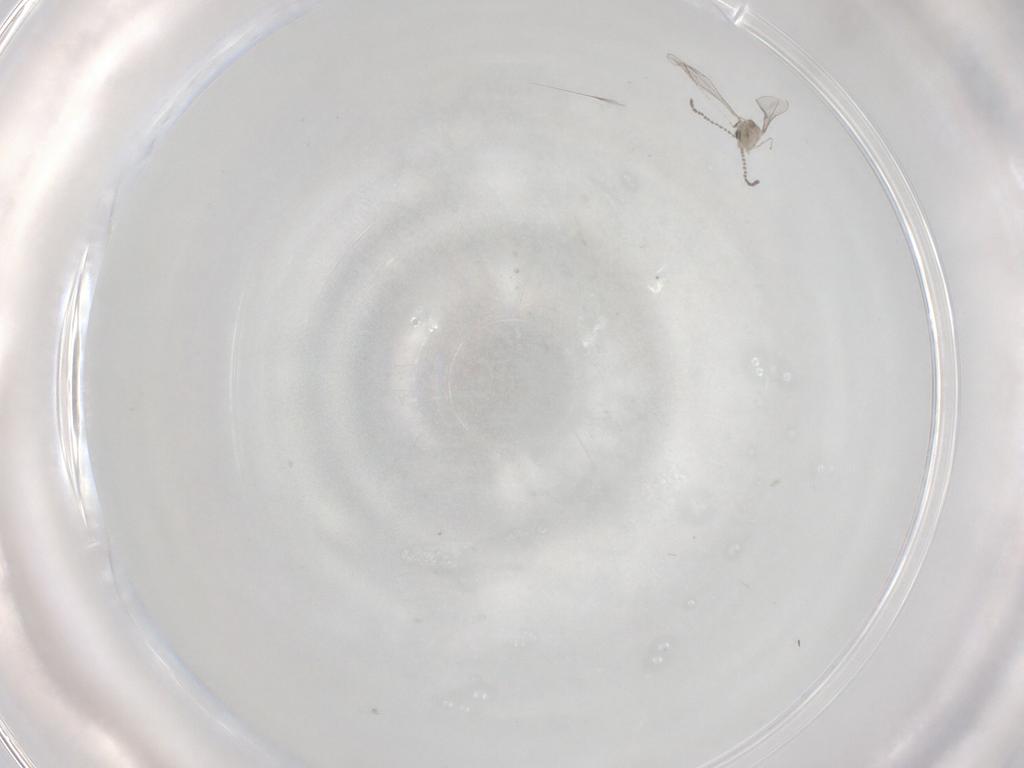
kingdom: Animalia
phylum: Arthropoda
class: Insecta
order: Diptera
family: Cecidomyiidae
